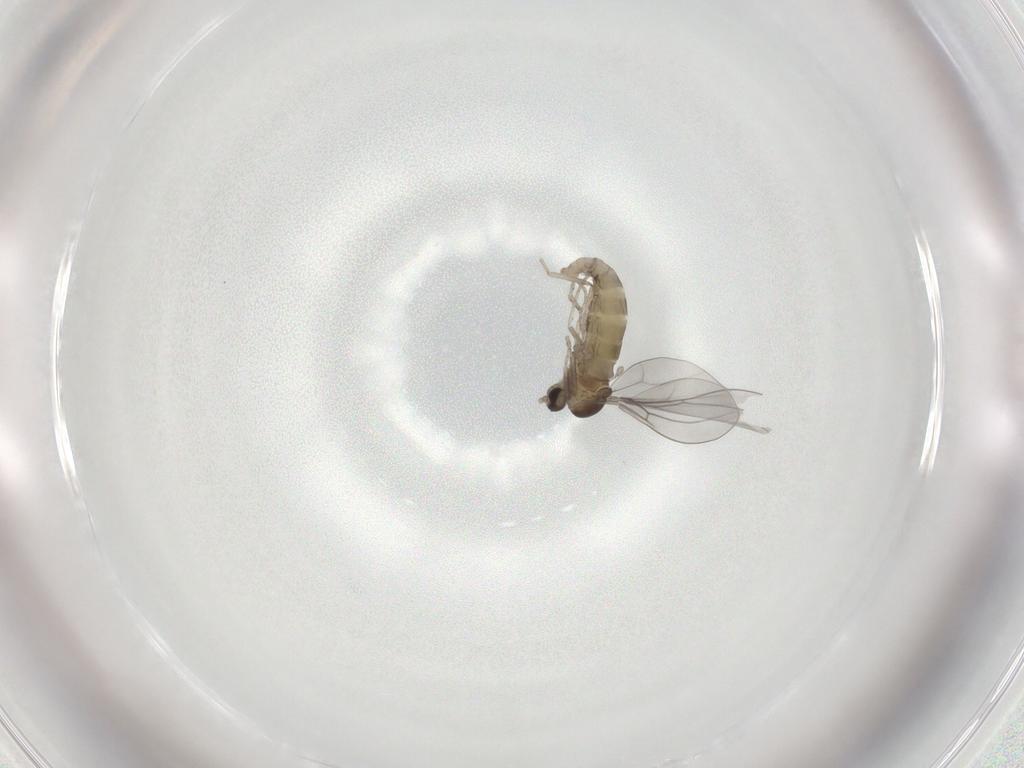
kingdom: Animalia
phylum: Arthropoda
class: Insecta
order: Diptera
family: Cecidomyiidae
